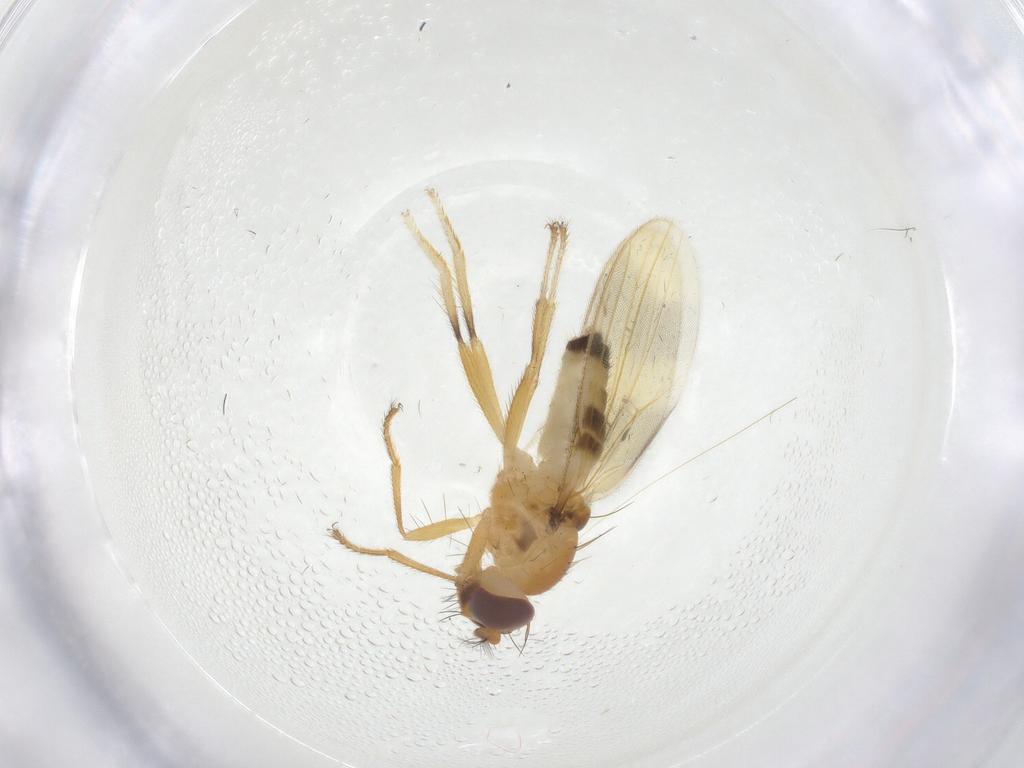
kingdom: Animalia
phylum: Arthropoda
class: Insecta
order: Diptera
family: Periscelididae
